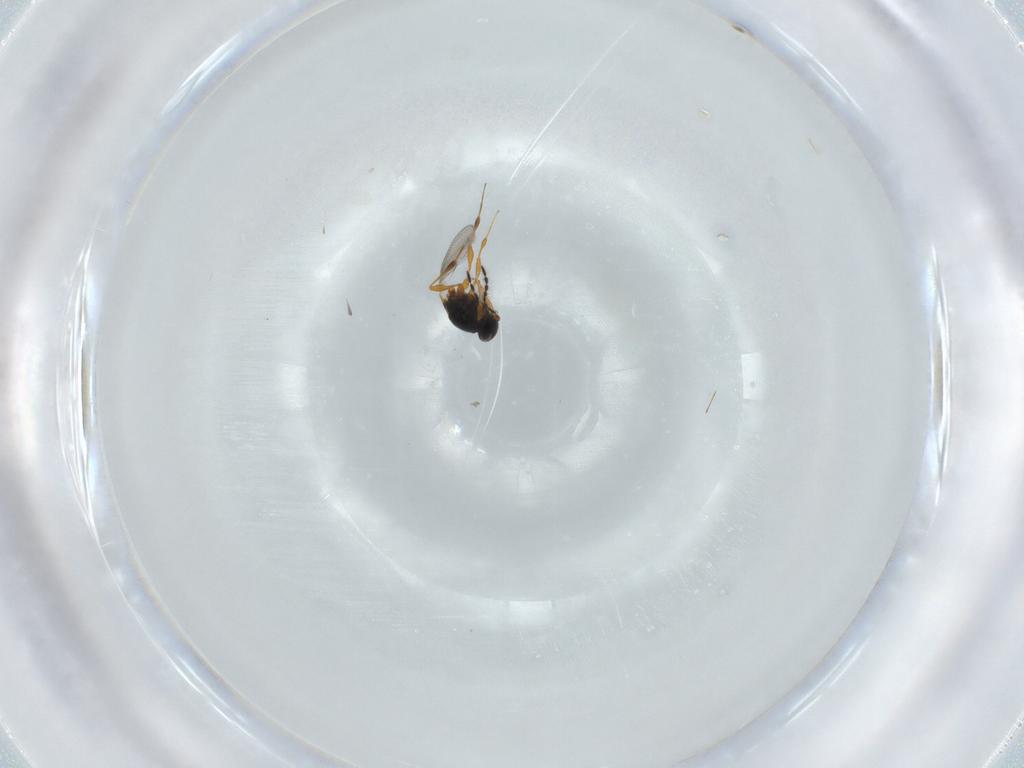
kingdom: Animalia
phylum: Arthropoda
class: Insecta
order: Hymenoptera
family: Platygastridae
